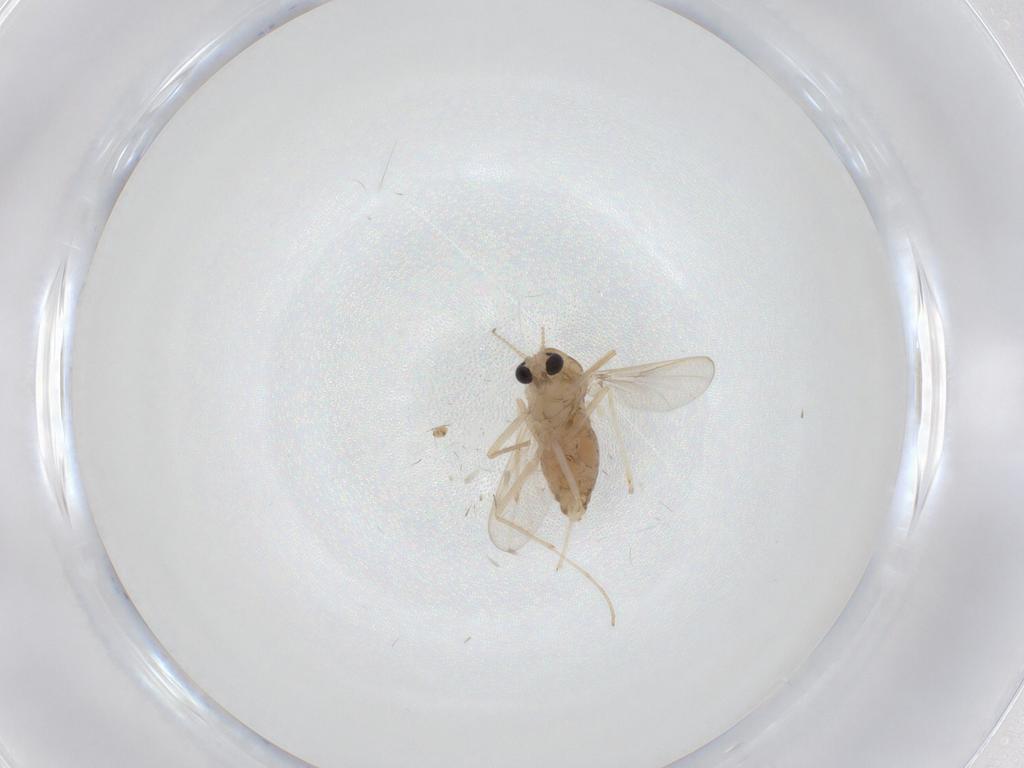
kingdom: Animalia
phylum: Arthropoda
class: Insecta
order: Diptera
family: Chironomidae
